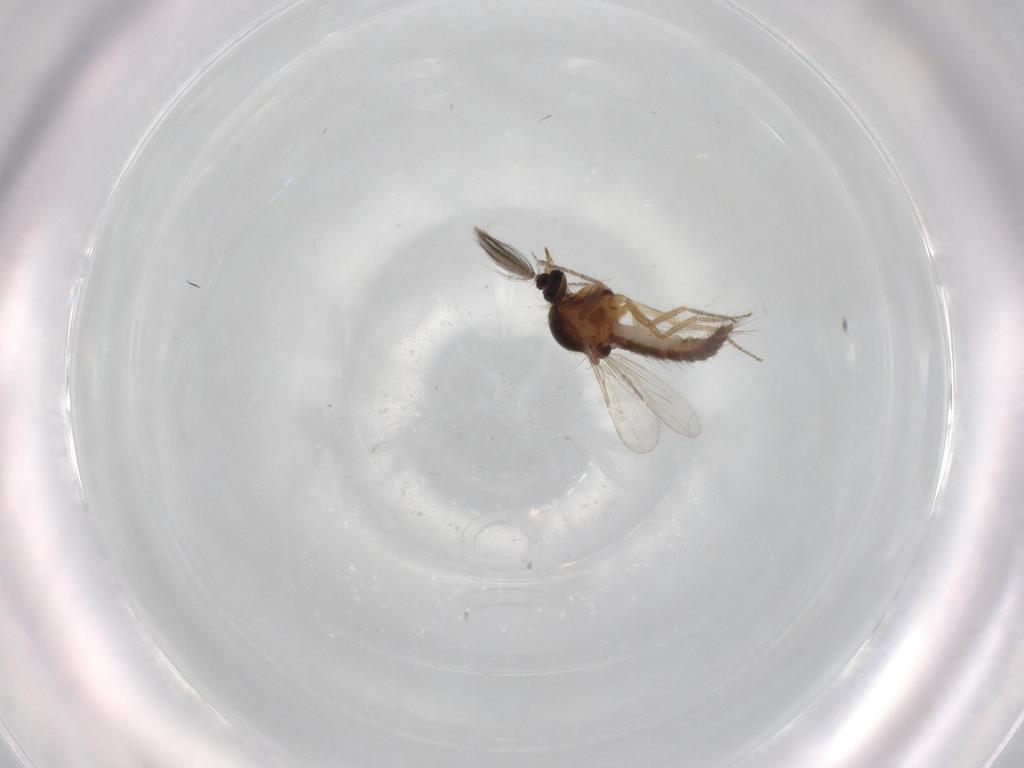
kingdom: Animalia
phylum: Arthropoda
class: Insecta
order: Diptera
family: Ceratopogonidae
